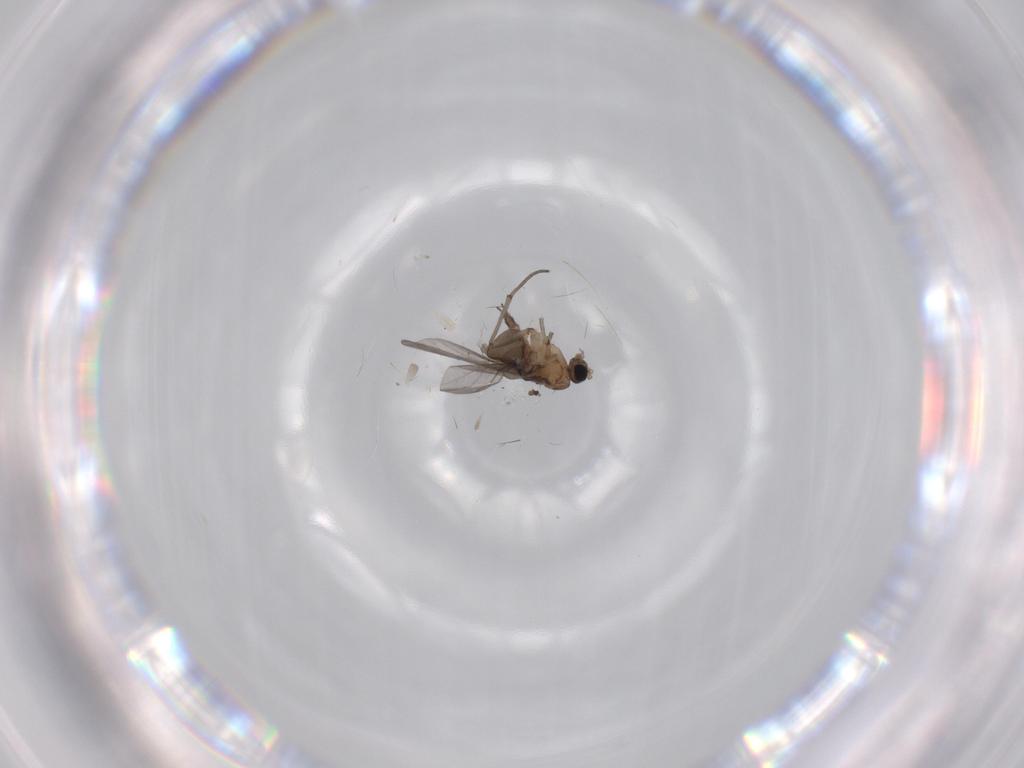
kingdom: Animalia
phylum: Arthropoda
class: Insecta
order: Diptera
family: Sciaridae
